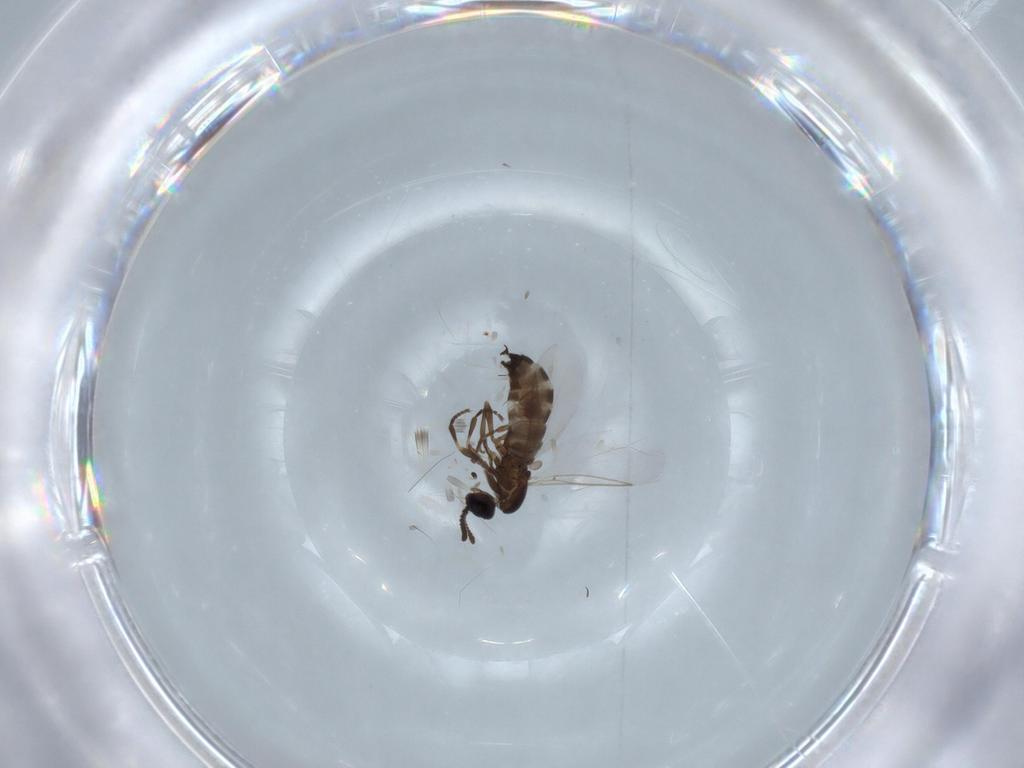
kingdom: Animalia
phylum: Arthropoda
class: Insecta
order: Diptera
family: Scatopsidae
